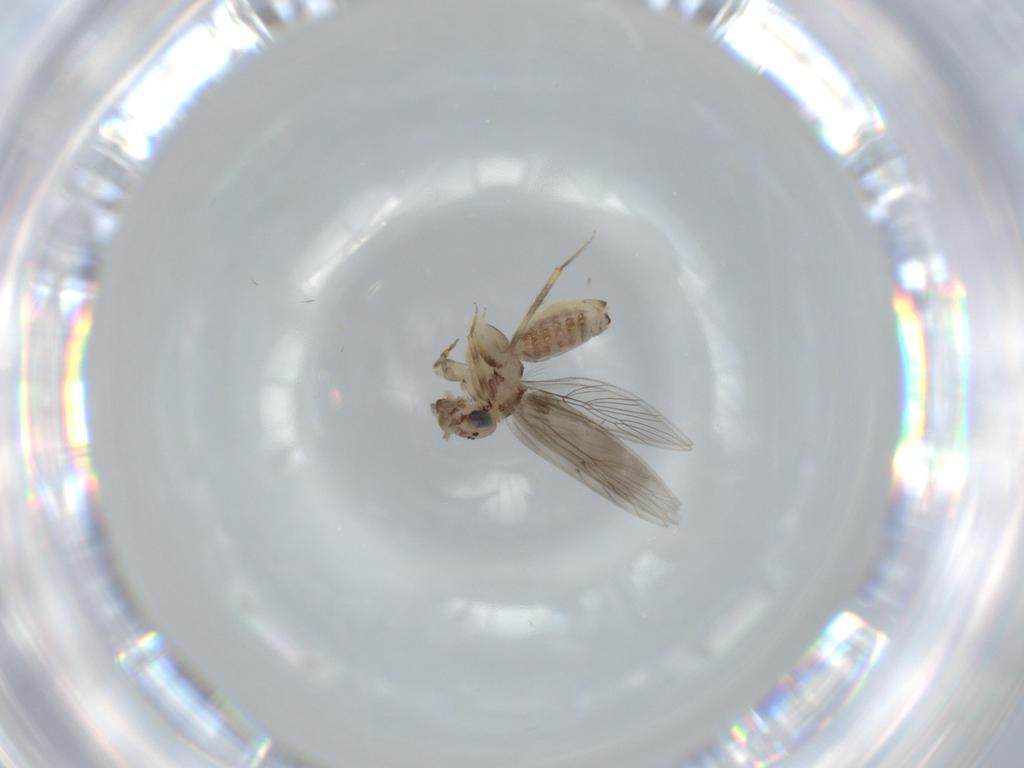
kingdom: Animalia
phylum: Arthropoda
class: Insecta
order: Psocodea
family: Lepidopsocidae
